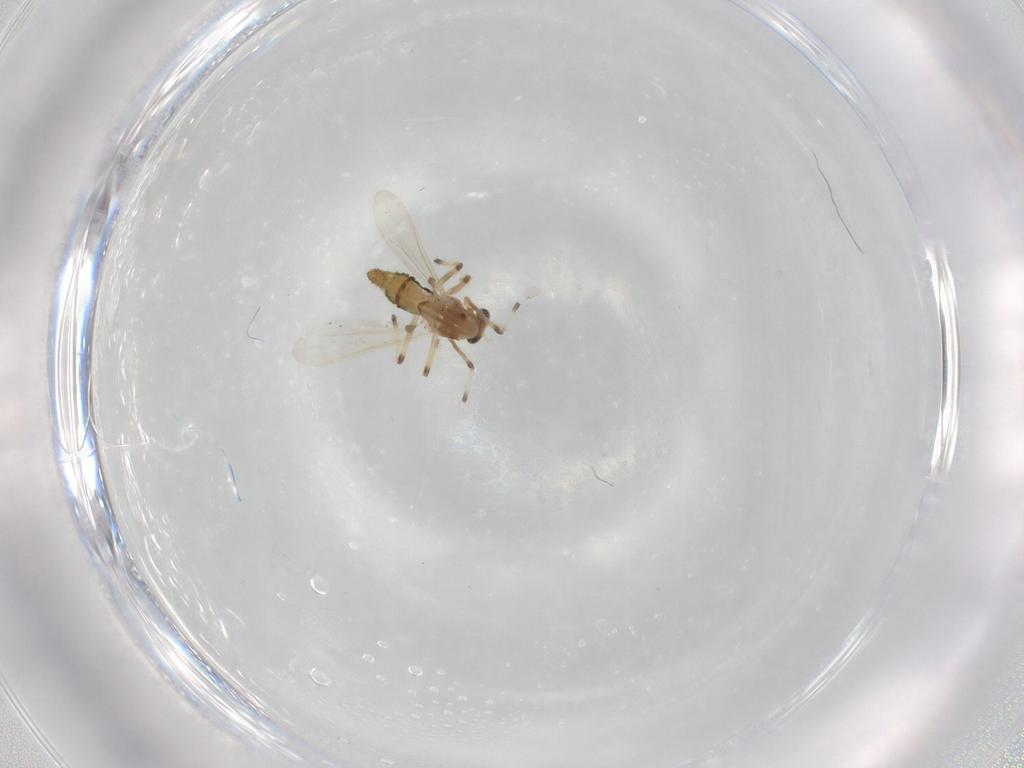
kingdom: Animalia
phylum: Arthropoda
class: Insecta
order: Diptera
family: Chironomidae
